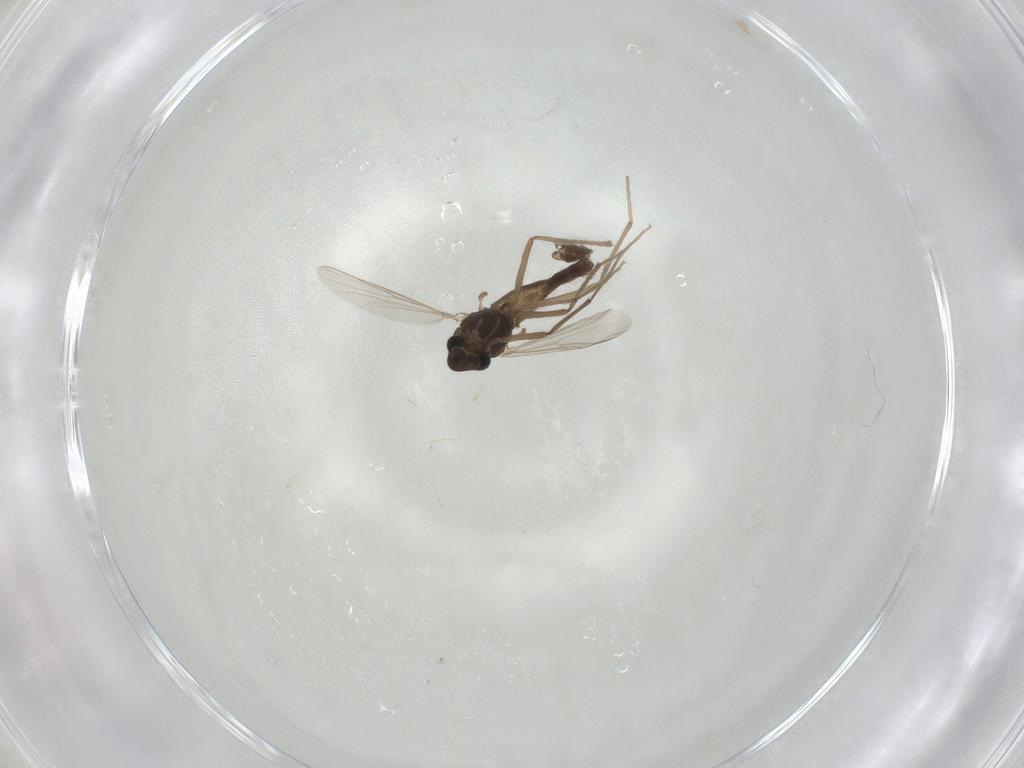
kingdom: Animalia
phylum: Arthropoda
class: Insecta
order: Diptera
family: Chironomidae
